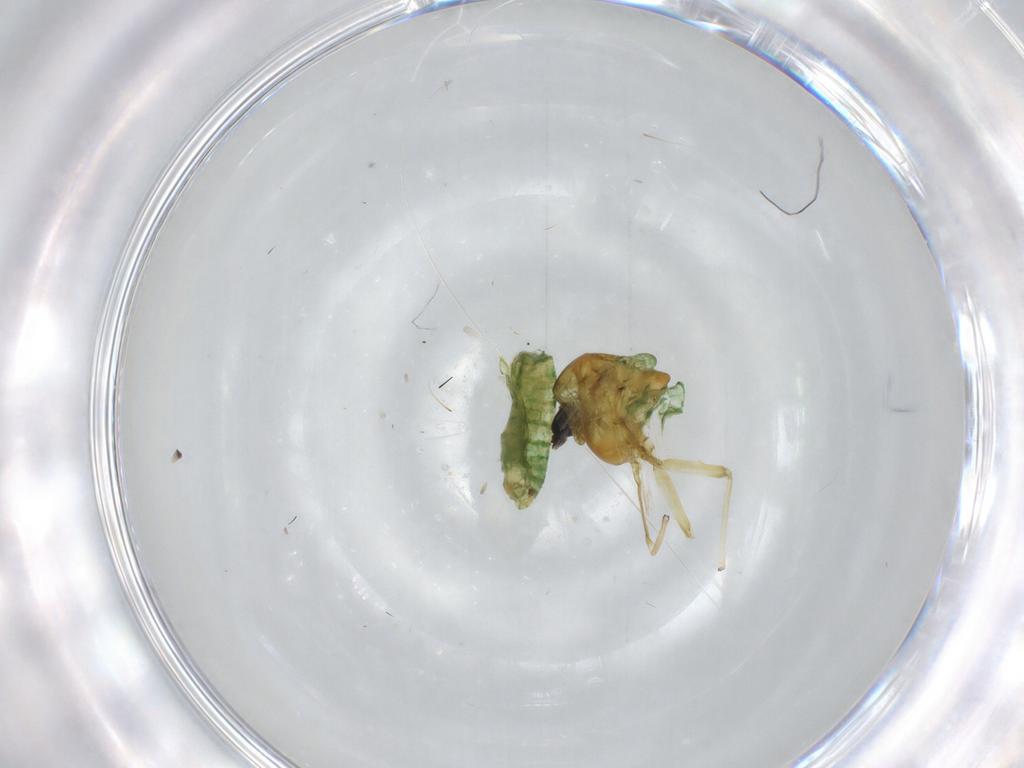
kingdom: Animalia
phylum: Arthropoda
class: Insecta
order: Diptera
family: Chironomidae
